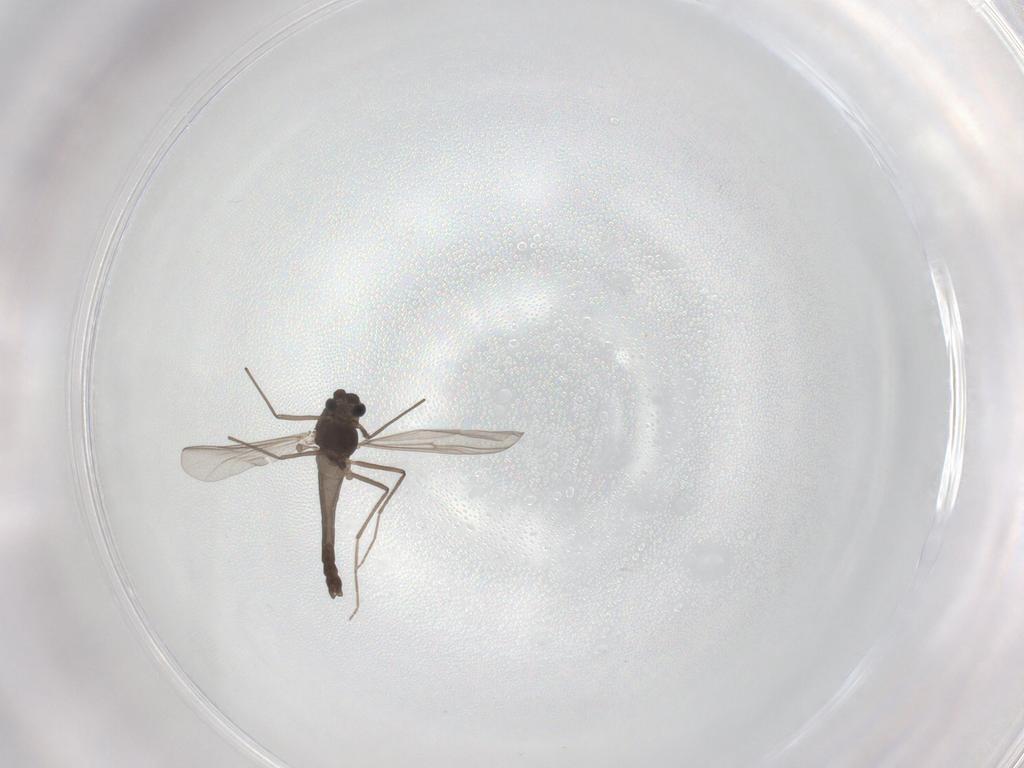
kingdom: Animalia
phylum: Arthropoda
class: Insecta
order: Diptera
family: Chironomidae
